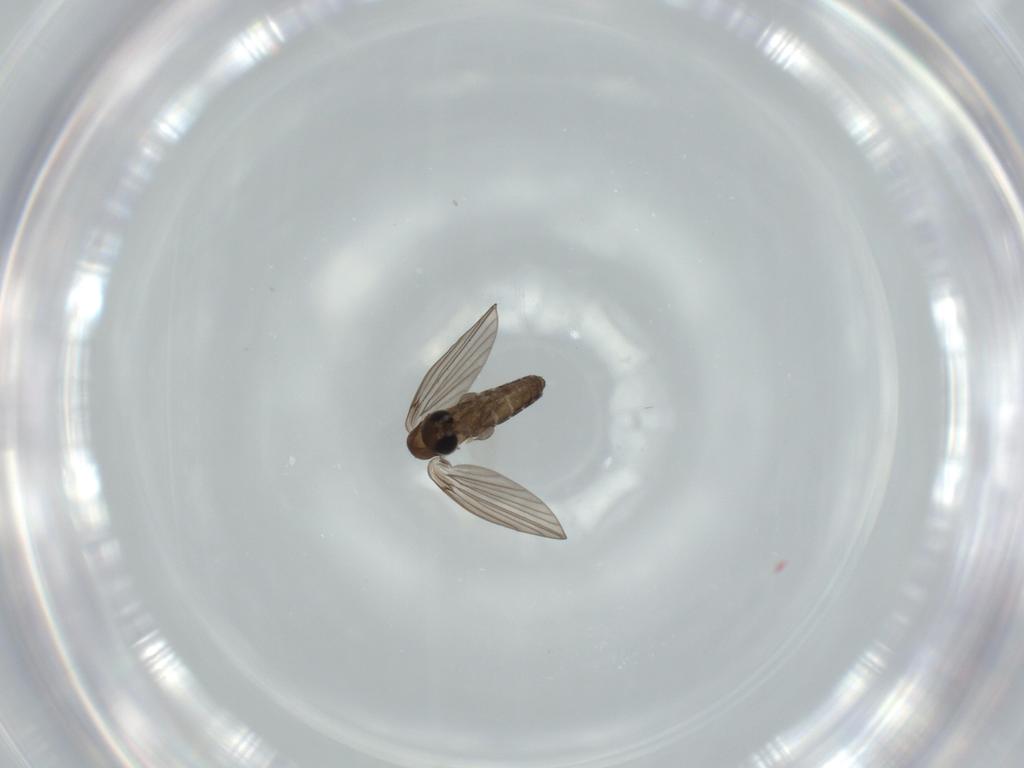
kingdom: Animalia
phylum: Arthropoda
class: Insecta
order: Diptera
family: Psychodidae
